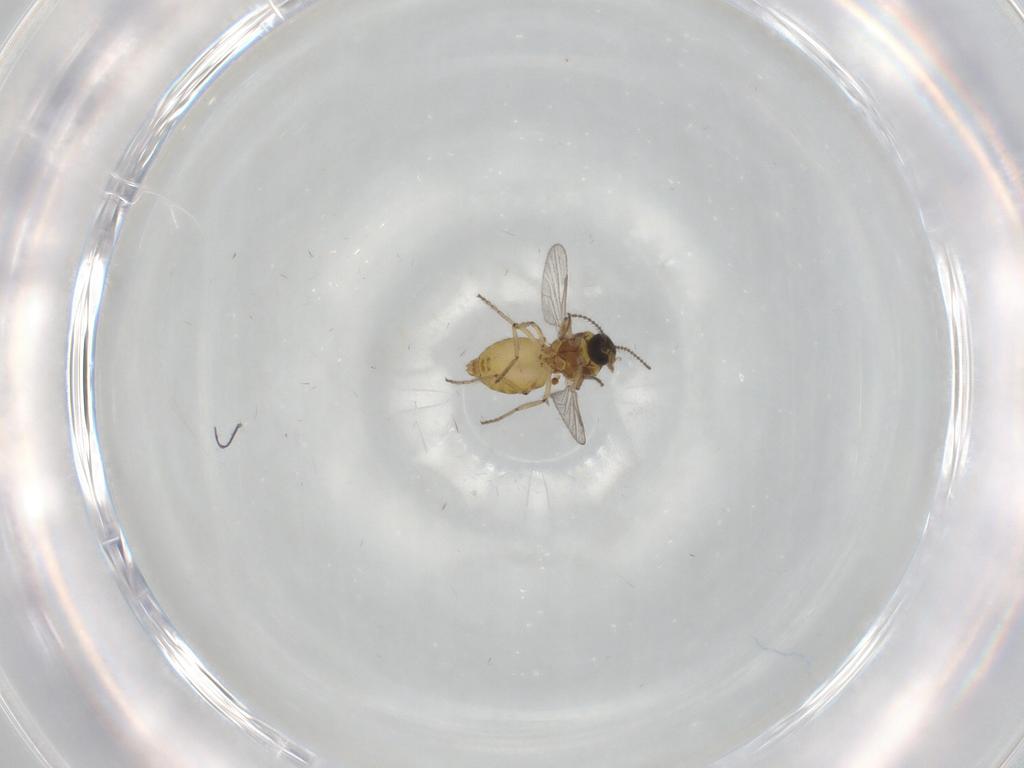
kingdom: Animalia
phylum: Arthropoda
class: Insecta
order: Diptera
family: Ceratopogonidae
